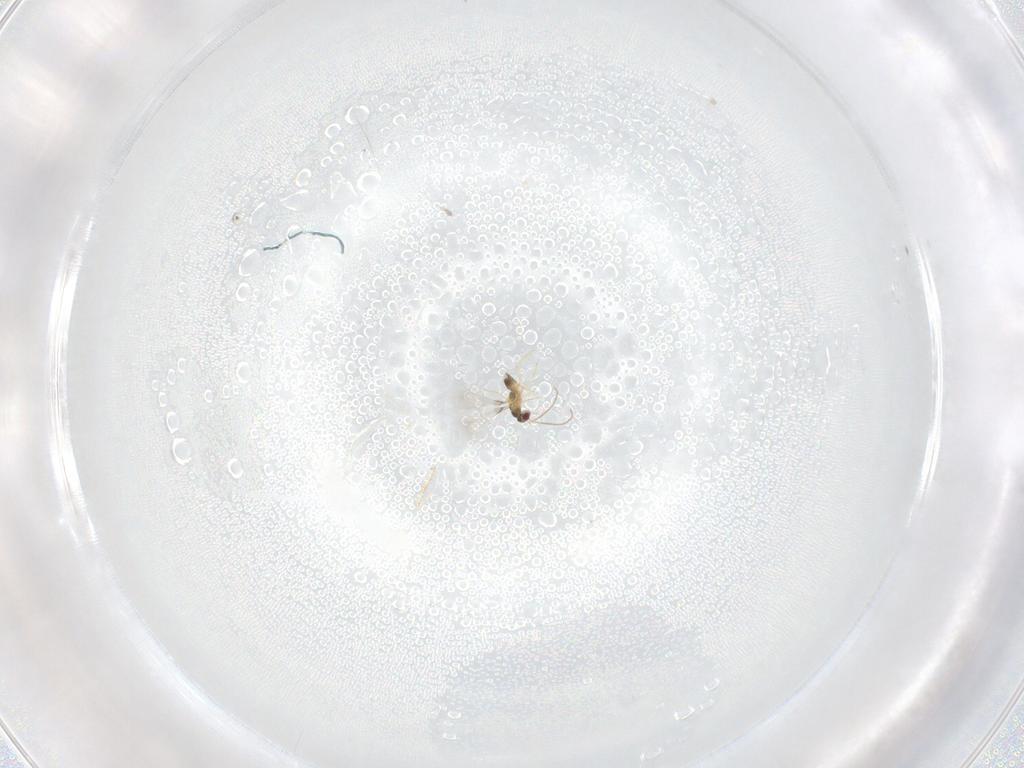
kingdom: Animalia
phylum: Arthropoda
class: Insecta
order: Hymenoptera
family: Mymaridae
